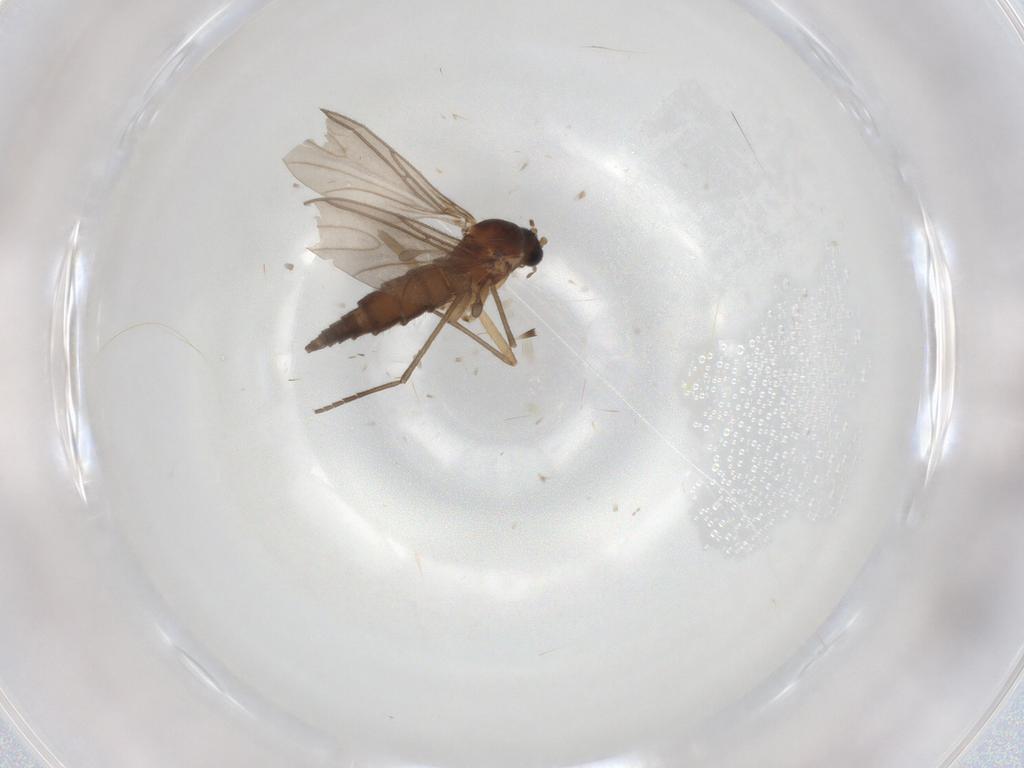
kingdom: Animalia
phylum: Arthropoda
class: Insecta
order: Diptera
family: Sciaridae
